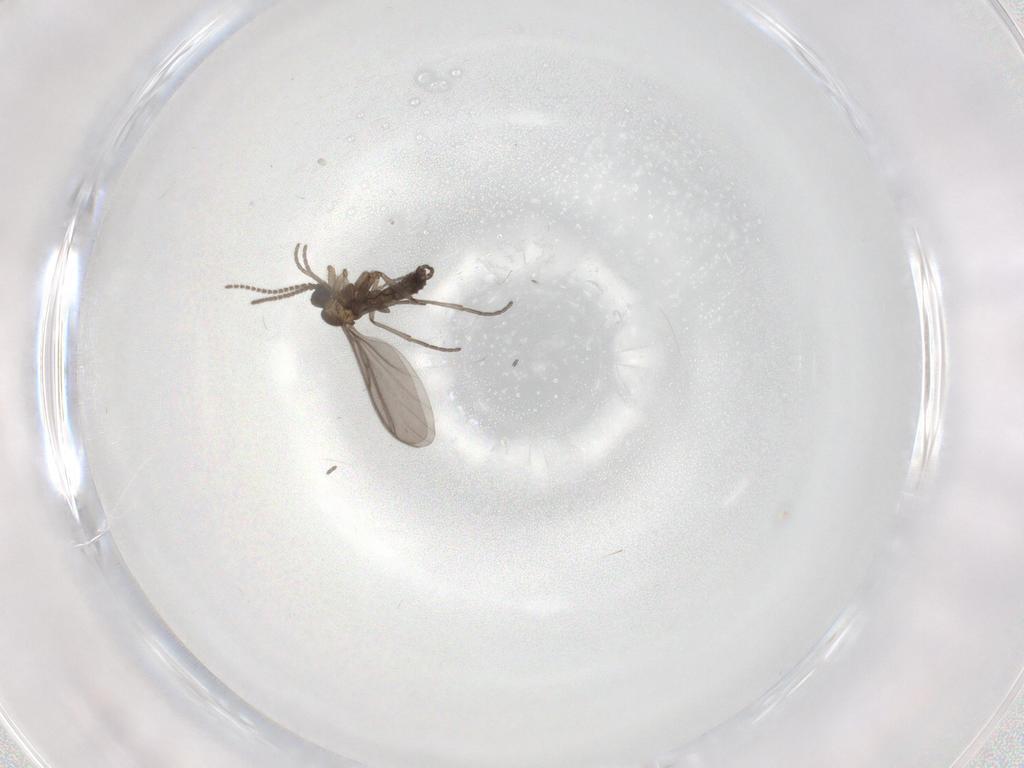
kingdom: Animalia
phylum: Arthropoda
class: Insecta
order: Diptera
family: Sciaridae
